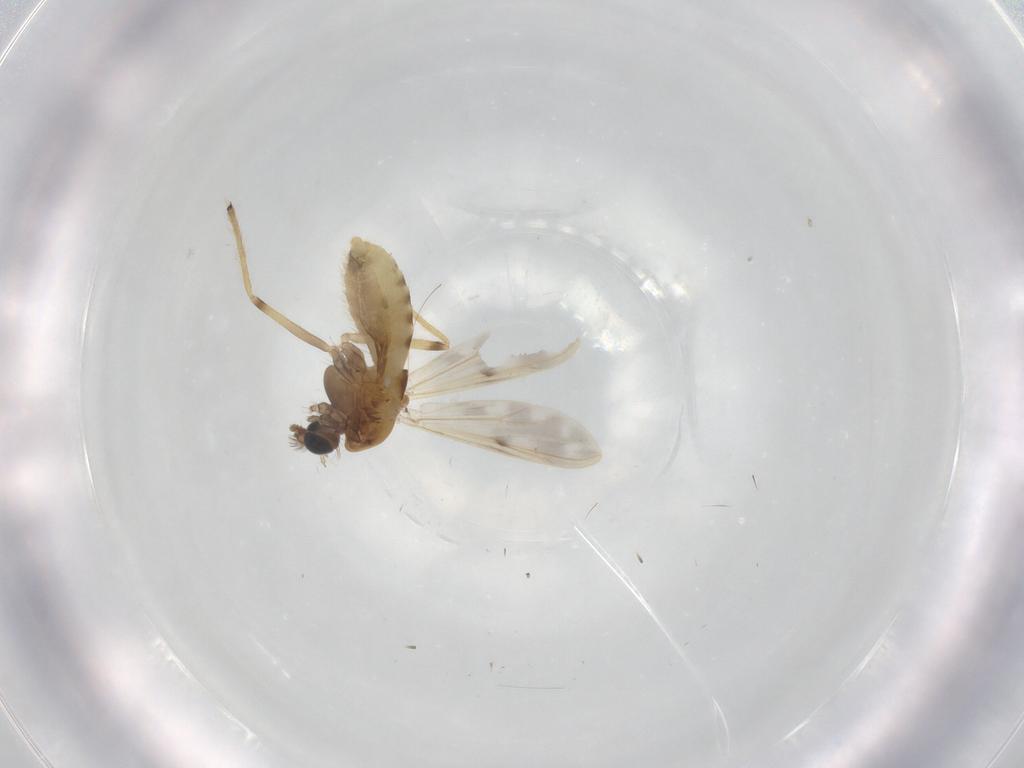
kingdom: Animalia
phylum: Arthropoda
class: Insecta
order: Diptera
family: Chironomidae
